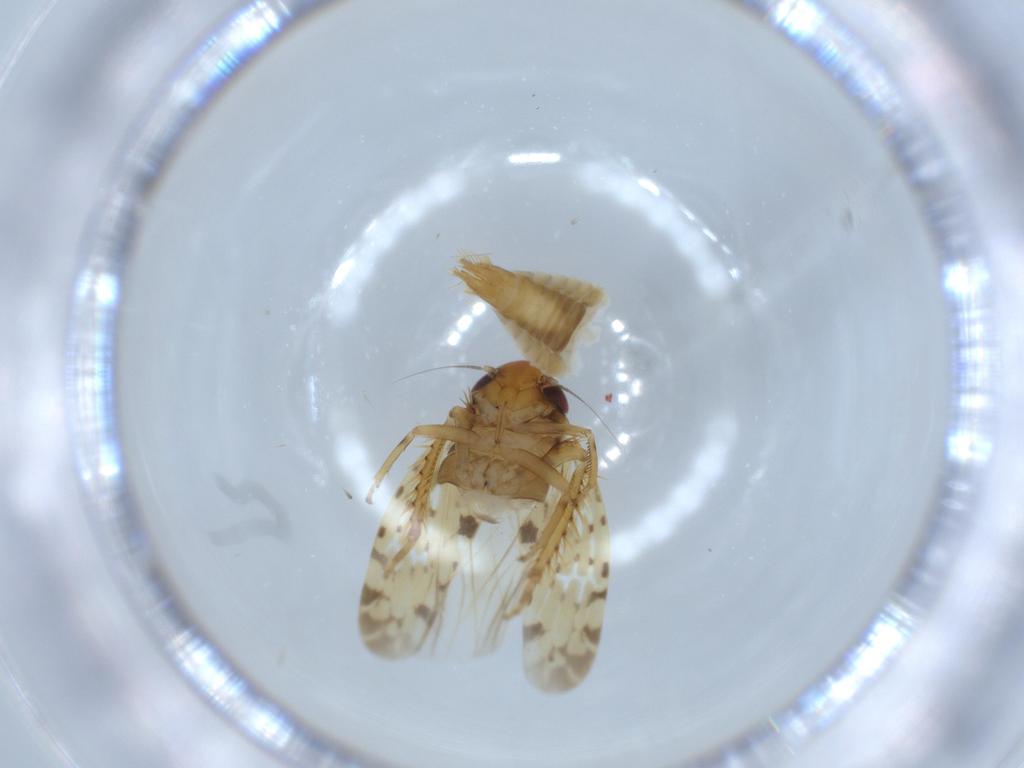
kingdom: Animalia
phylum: Arthropoda
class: Insecta
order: Hemiptera
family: Cicadellidae
